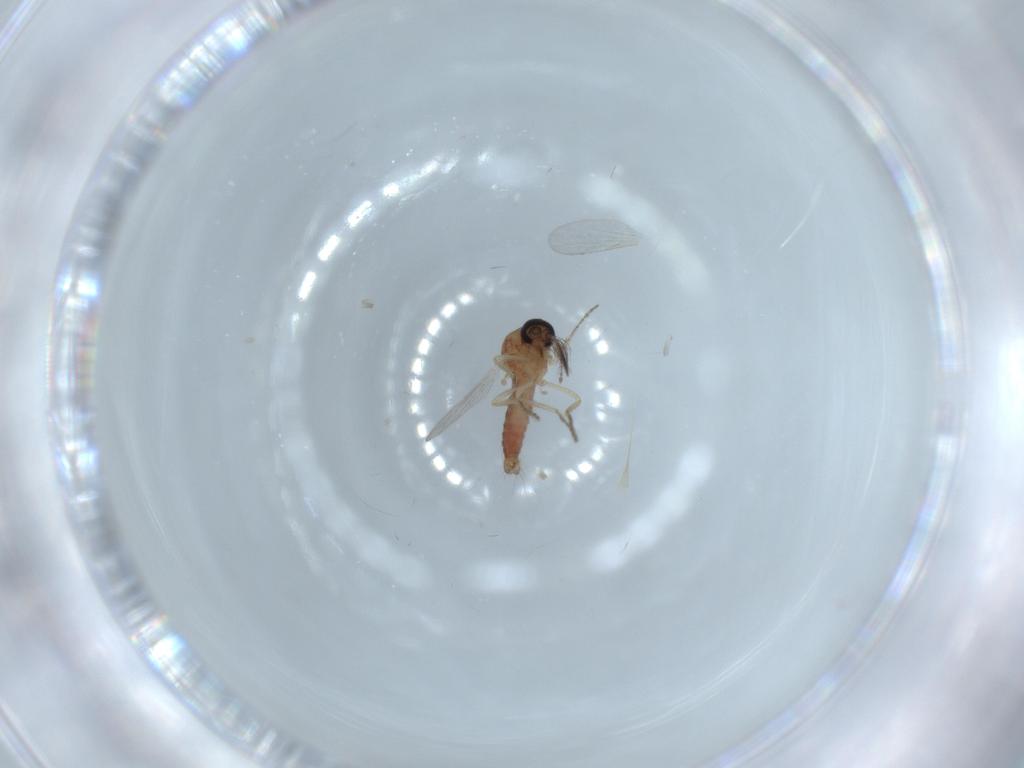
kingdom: Animalia
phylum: Arthropoda
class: Insecta
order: Diptera
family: Ceratopogonidae
